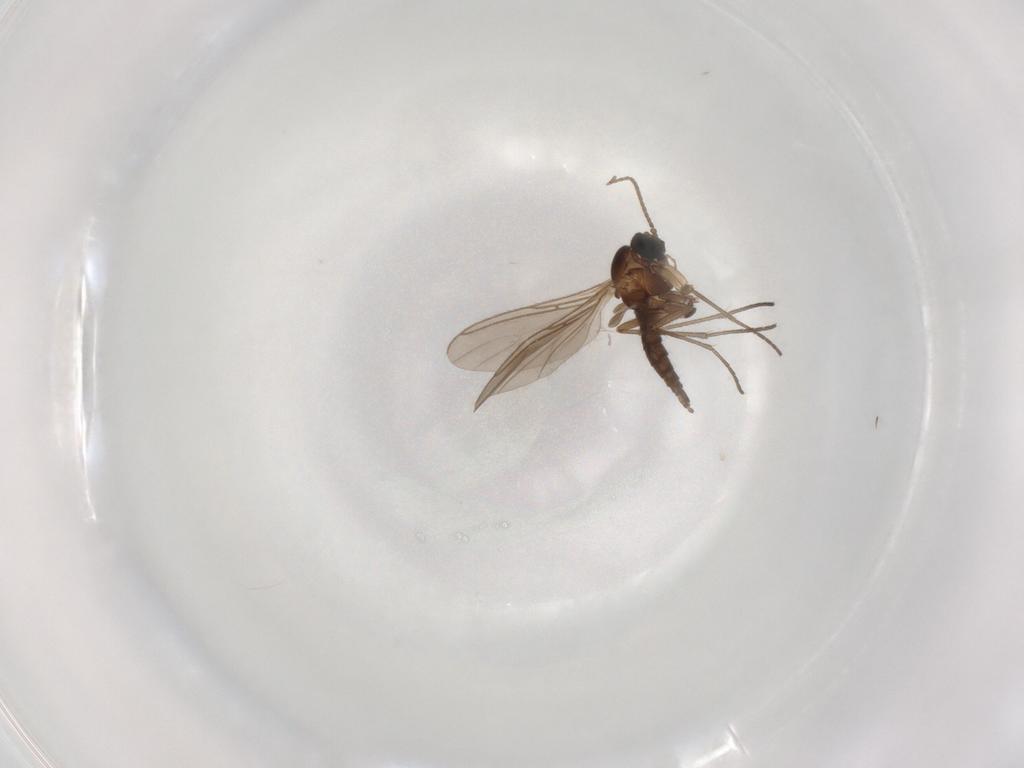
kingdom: Animalia
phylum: Arthropoda
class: Insecta
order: Diptera
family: Sciaridae
